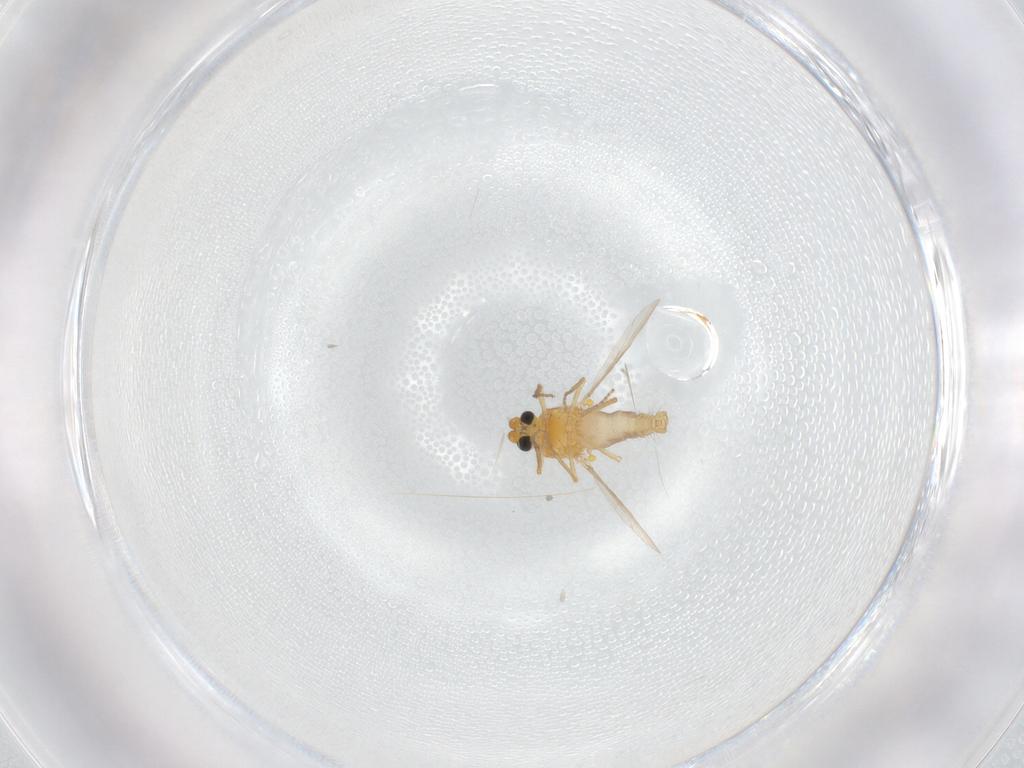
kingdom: Animalia
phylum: Arthropoda
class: Insecta
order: Diptera
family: Ceratopogonidae
